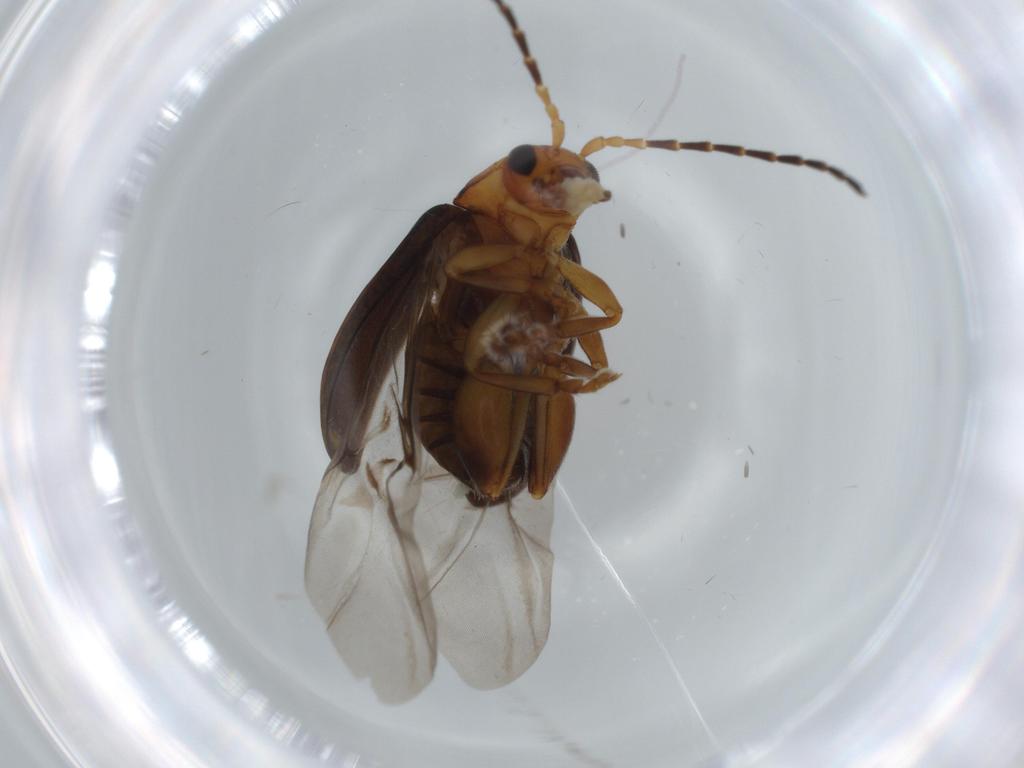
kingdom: Animalia
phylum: Arthropoda
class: Insecta
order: Coleoptera
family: Chrysomelidae
